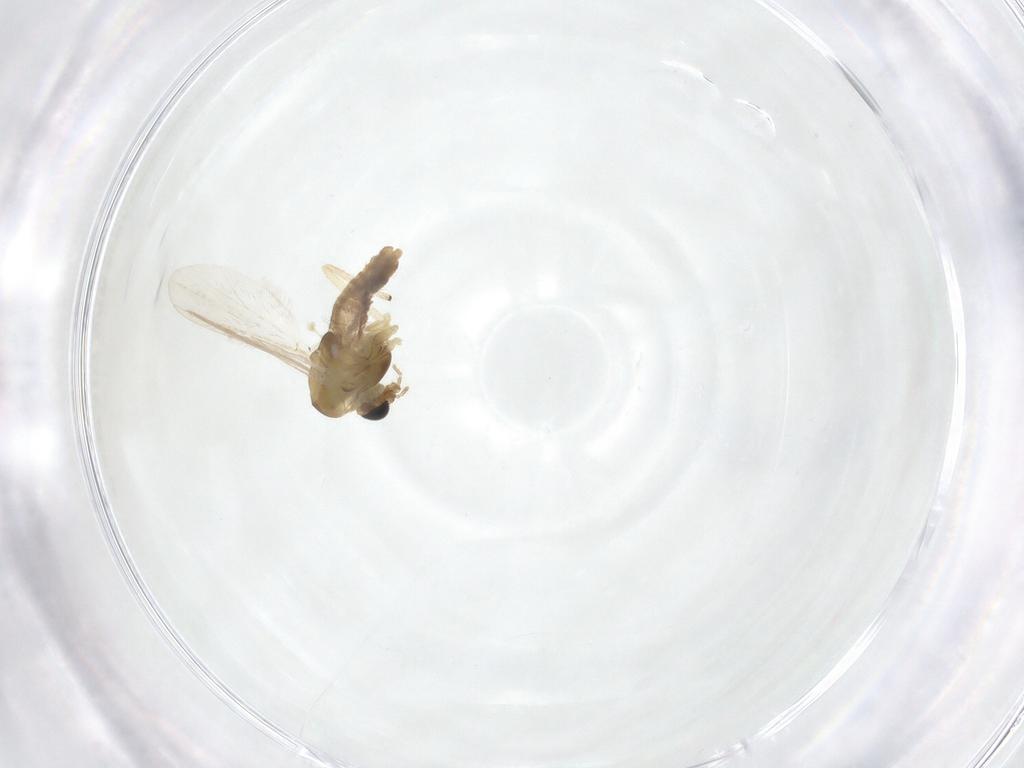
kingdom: Animalia
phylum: Arthropoda
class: Insecta
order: Diptera
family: Chironomidae
